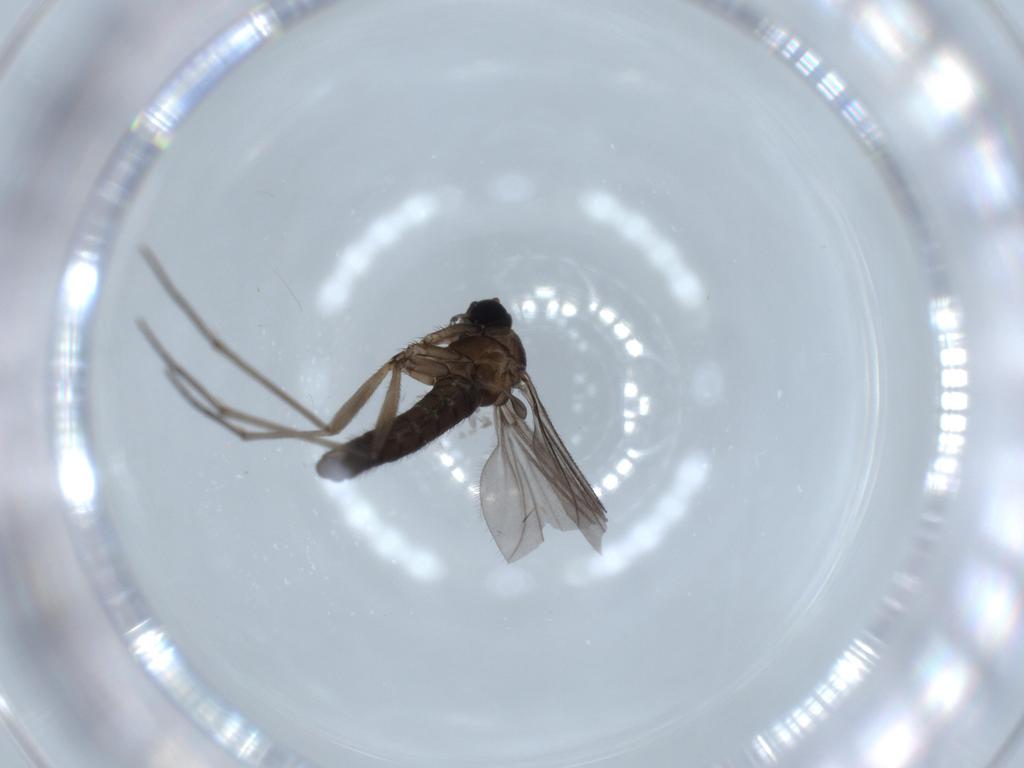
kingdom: Animalia
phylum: Arthropoda
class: Insecta
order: Diptera
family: Sciaridae
